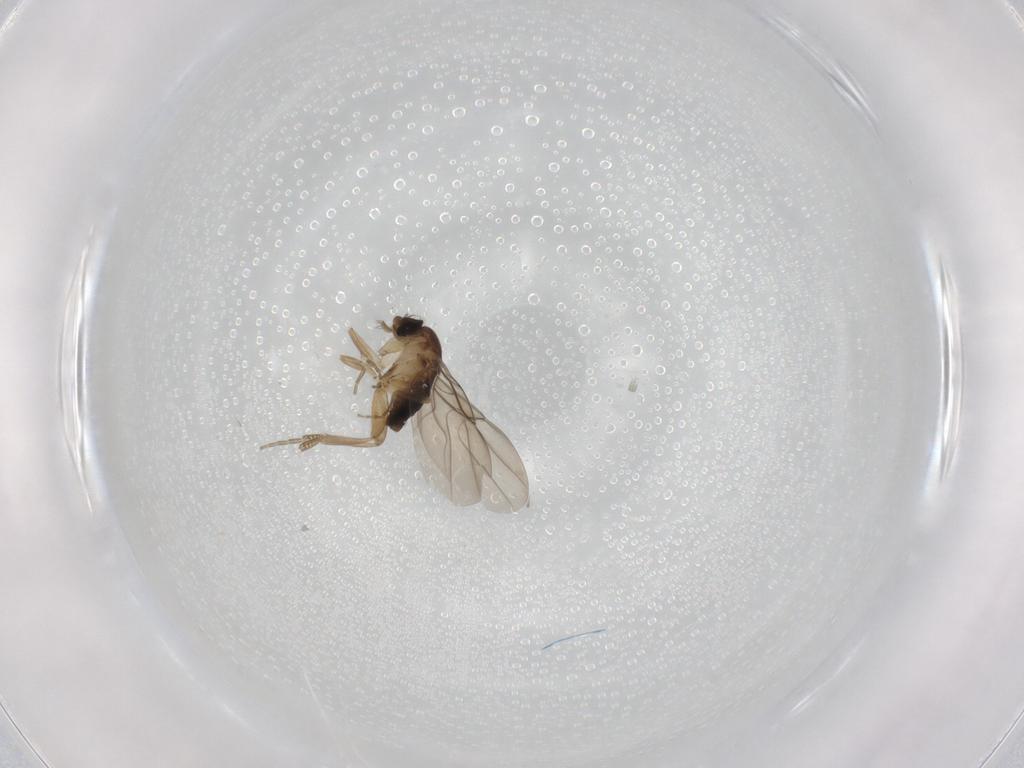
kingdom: Animalia
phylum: Arthropoda
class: Insecta
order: Diptera
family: Phoridae
